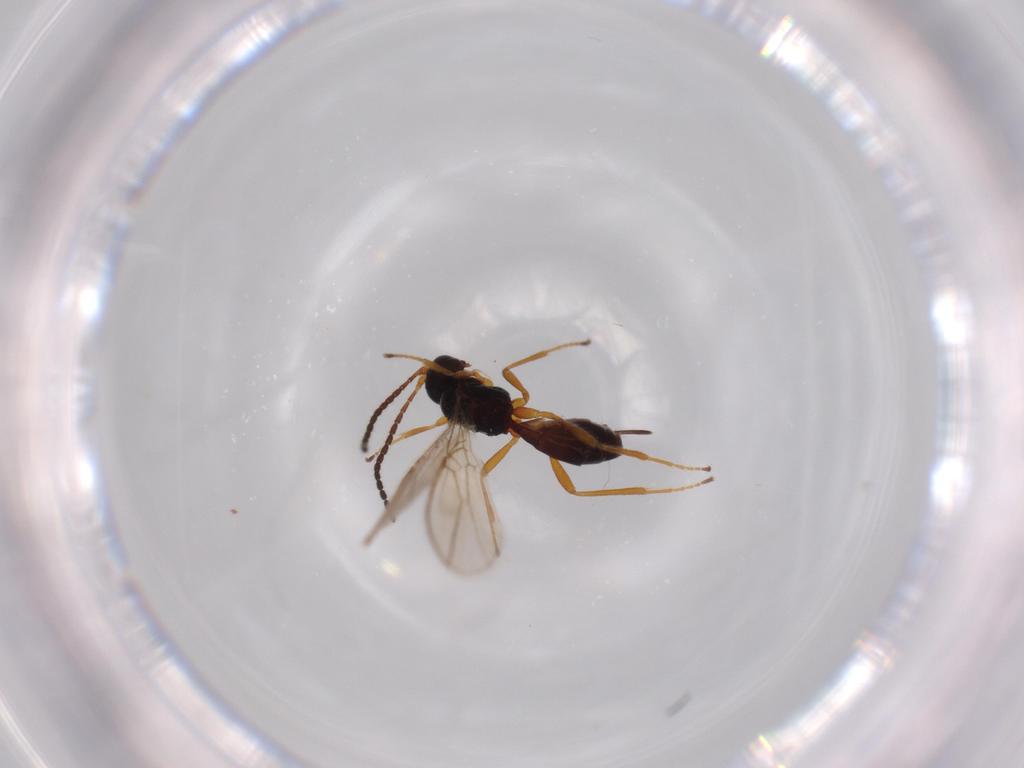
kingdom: Animalia
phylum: Arthropoda
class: Insecta
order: Hymenoptera
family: Braconidae
